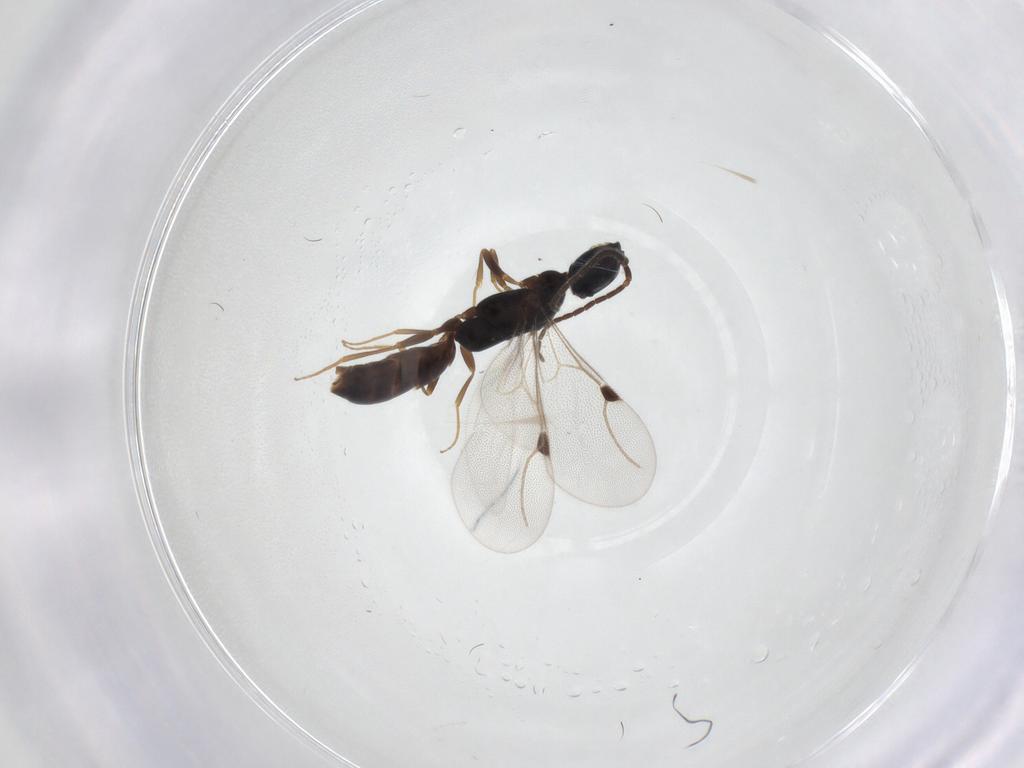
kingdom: Animalia
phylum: Arthropoda
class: Insecta
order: Hymenoptera
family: Bethylidae
